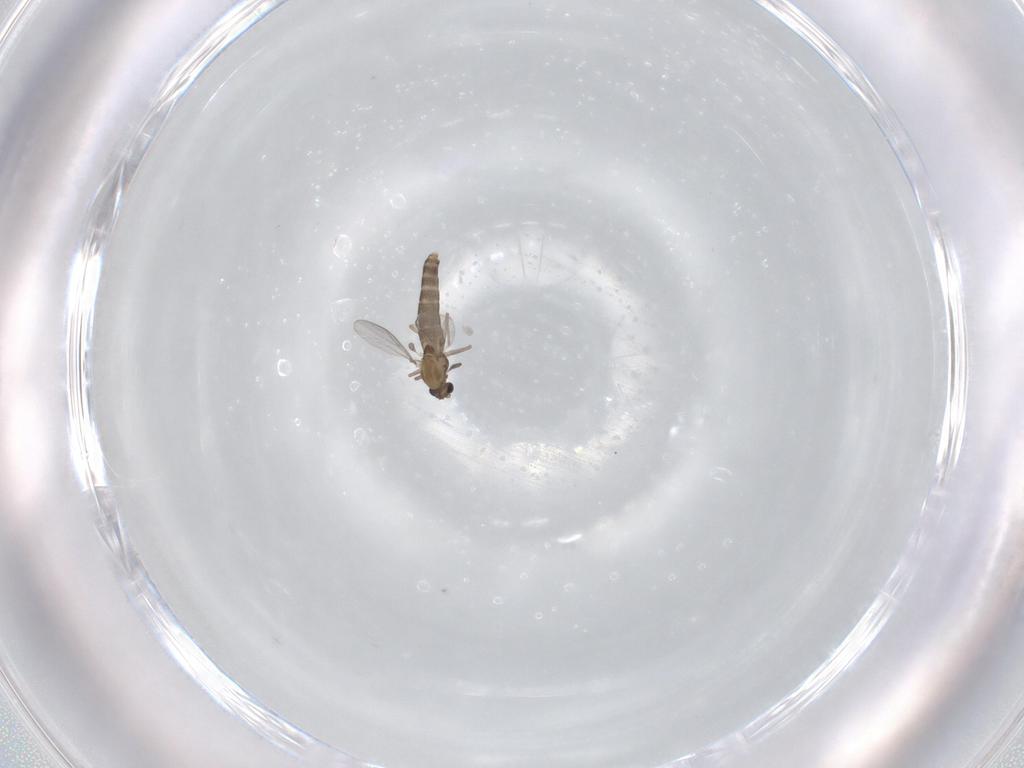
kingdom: Animalia
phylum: Arthropoda
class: Insecta
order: Diptera
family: Chironomidae
